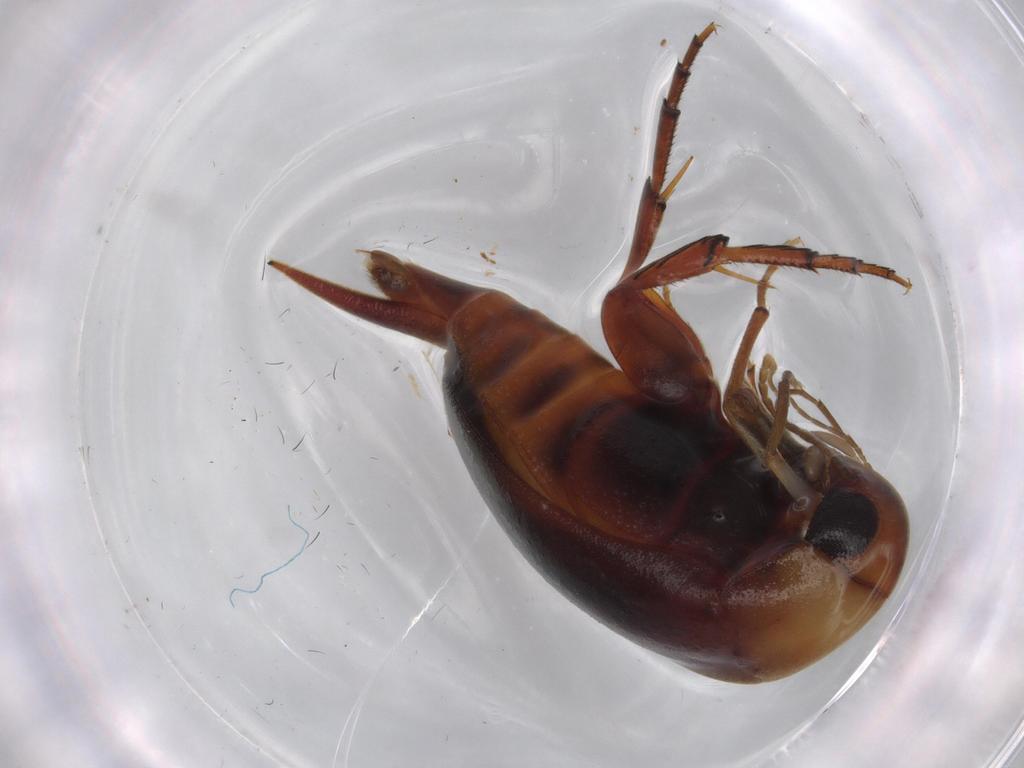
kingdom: Animalia
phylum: Arthropoda
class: Insecta
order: Coleoptera
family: Mordellidae
